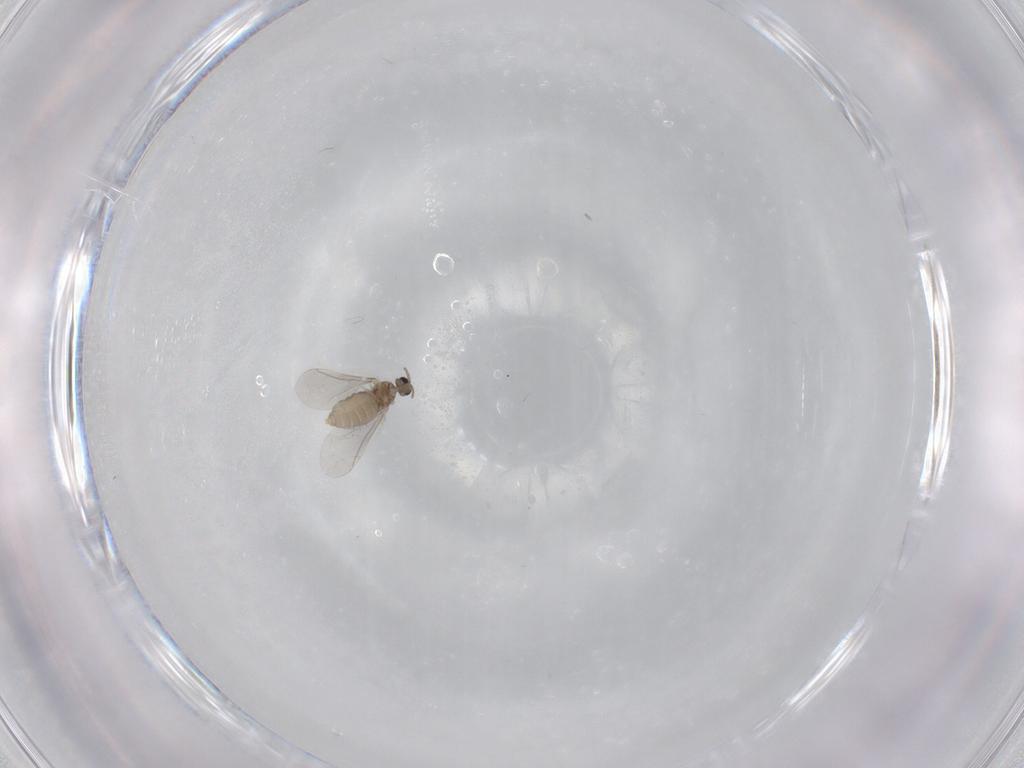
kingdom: Animalia
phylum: Arthropoda
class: Insecta
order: Diptera
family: Cecidomyiidae
